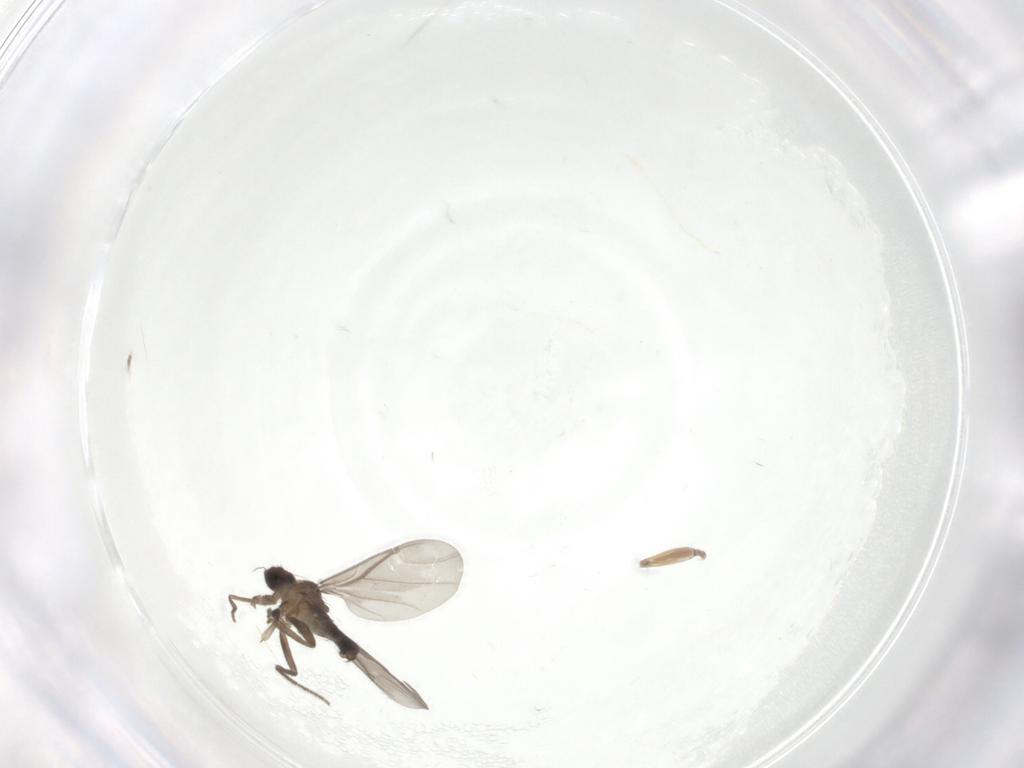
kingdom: Animalia
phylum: Arthropoda
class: Insecta
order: Diptera
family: Phoridae
